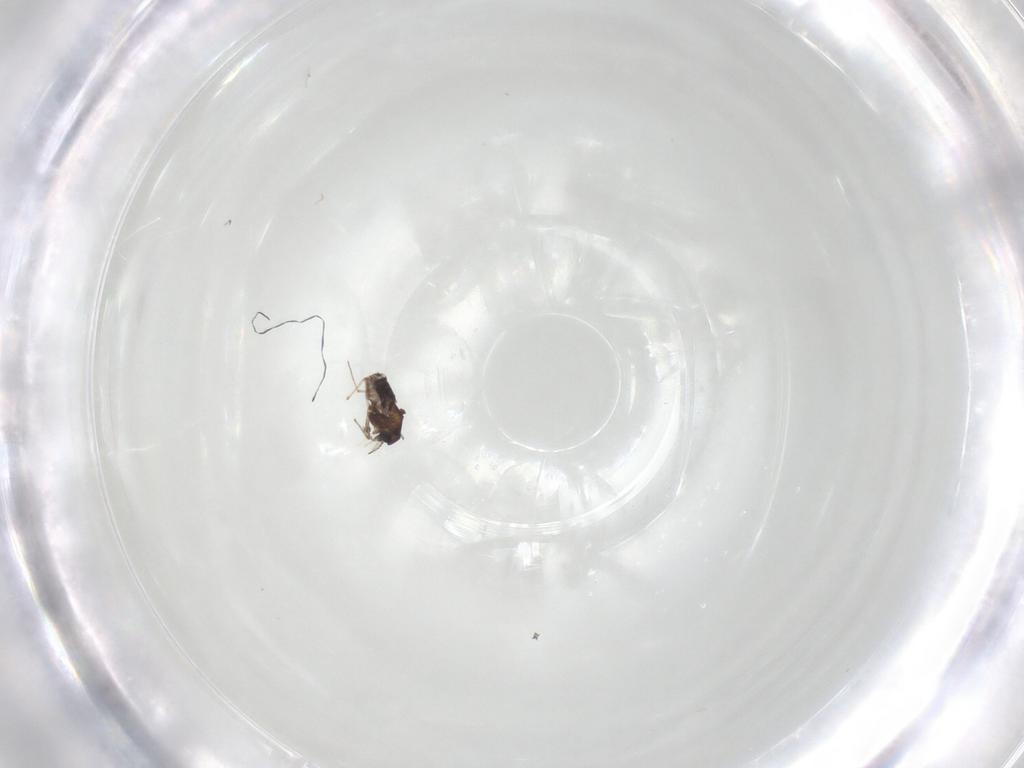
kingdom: Animalia
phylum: Arthropoda
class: Insecta
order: Diptera
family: Chironomidae
